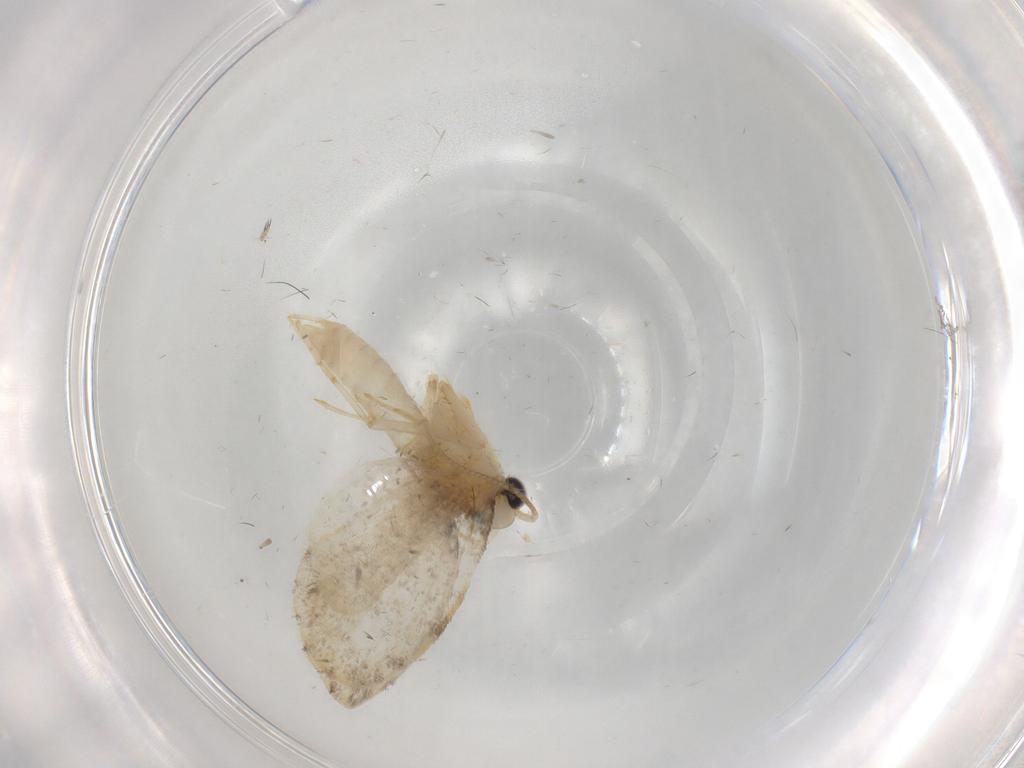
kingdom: Animalia
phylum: Arthropoda
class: Insecta
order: Lepidoptera
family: Psychidae
